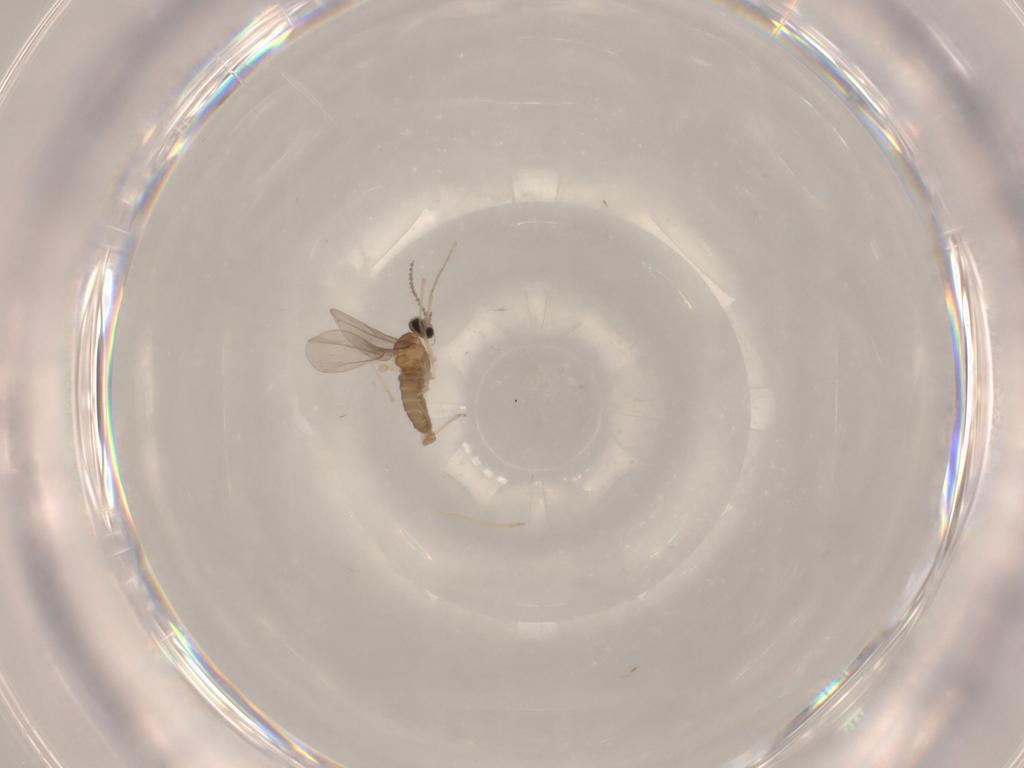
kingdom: Animalia
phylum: Arthropoda
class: Insecta
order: Diptera
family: Cecidomyiidae
